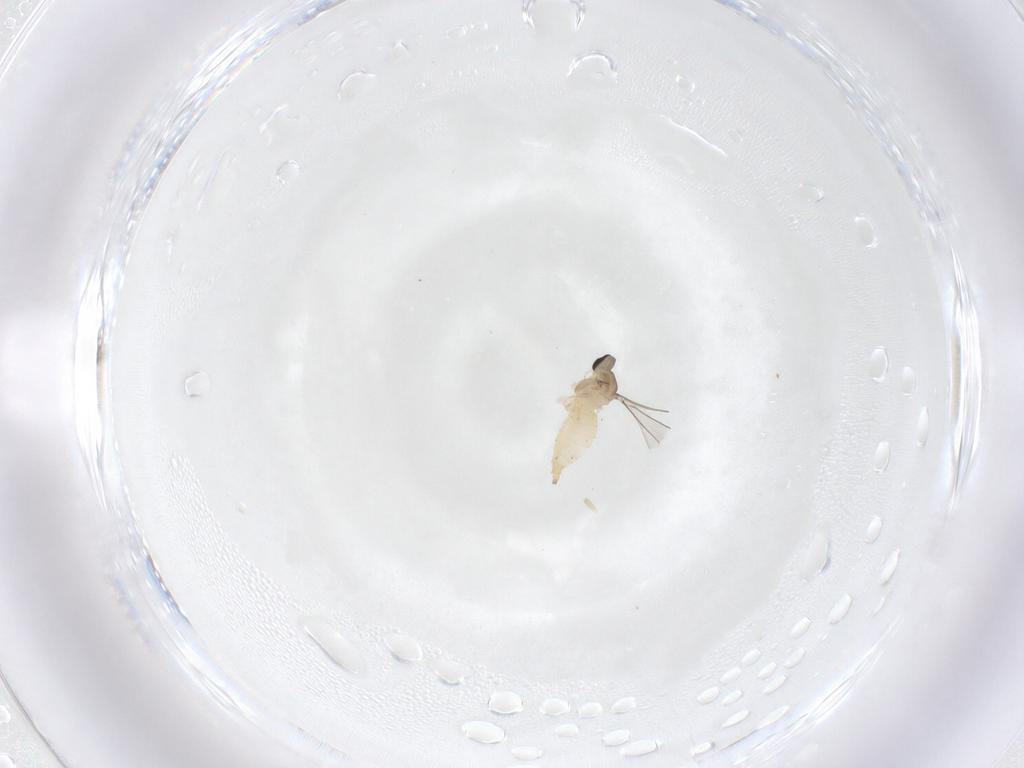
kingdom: Animalia
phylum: Arthropoda
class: Insecta
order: Diptera
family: Cecidomyiidae
